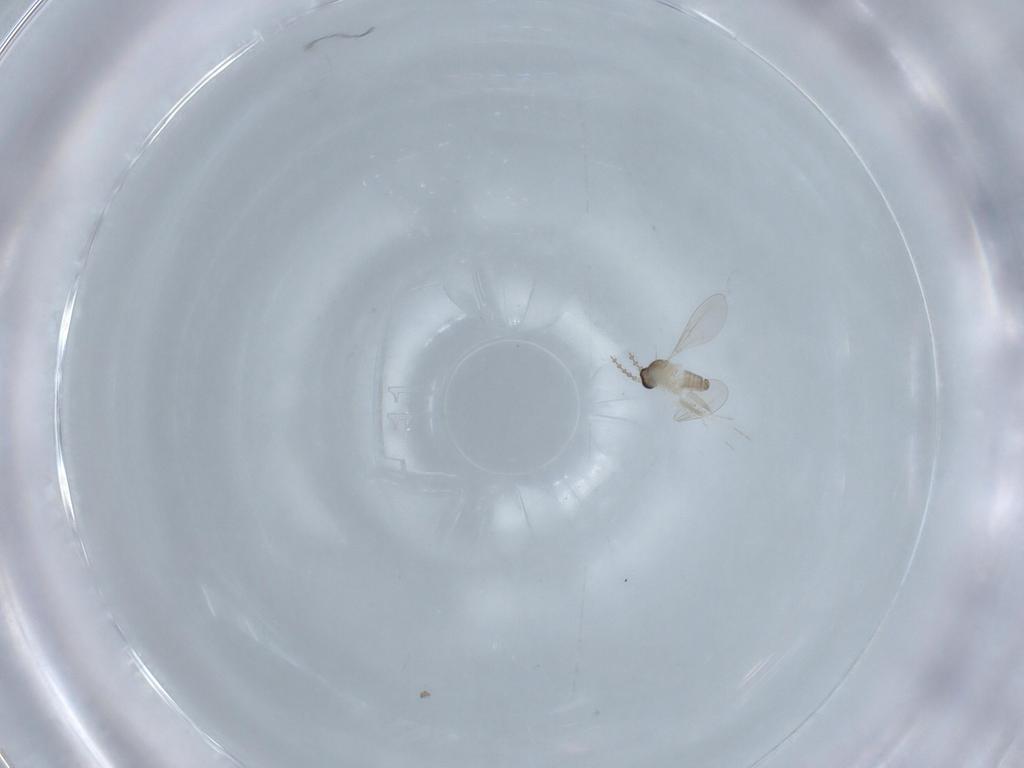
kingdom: Animalia
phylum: Arthropoda
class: Insecta
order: Diptera
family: Cecidomyiidae
